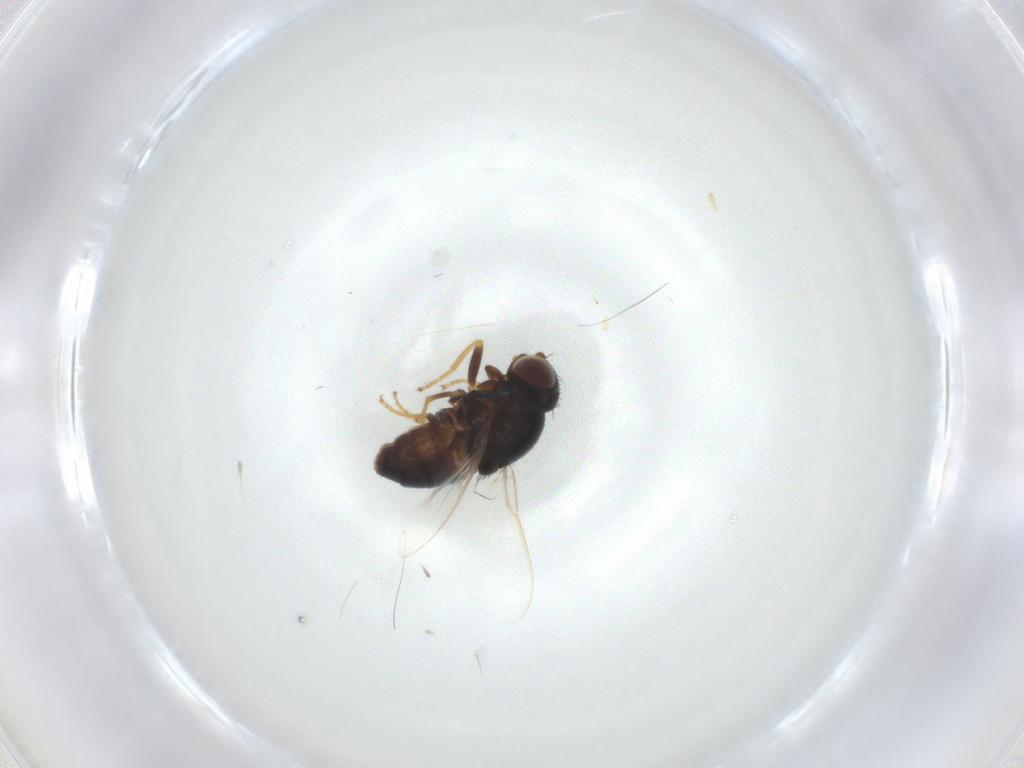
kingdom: Animalia
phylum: Arthropoda
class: Insecta
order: Diptera
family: Chloropidae
